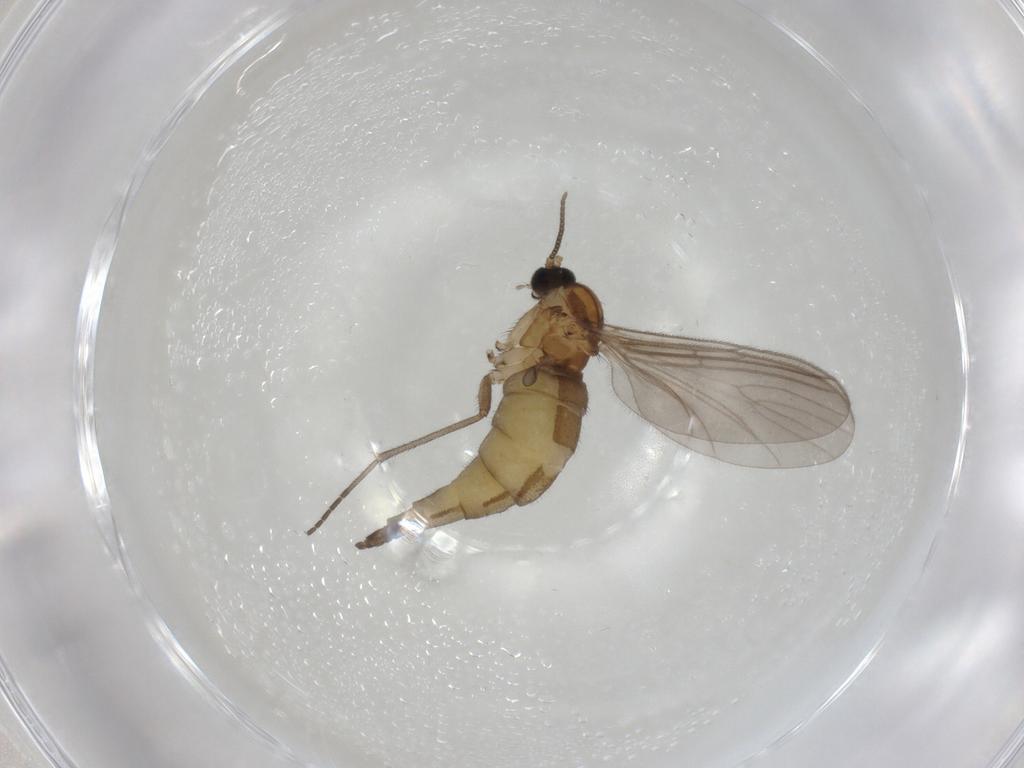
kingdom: Animalia
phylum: Arthropoda
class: Insecta
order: Diptera
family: Sciaridae
